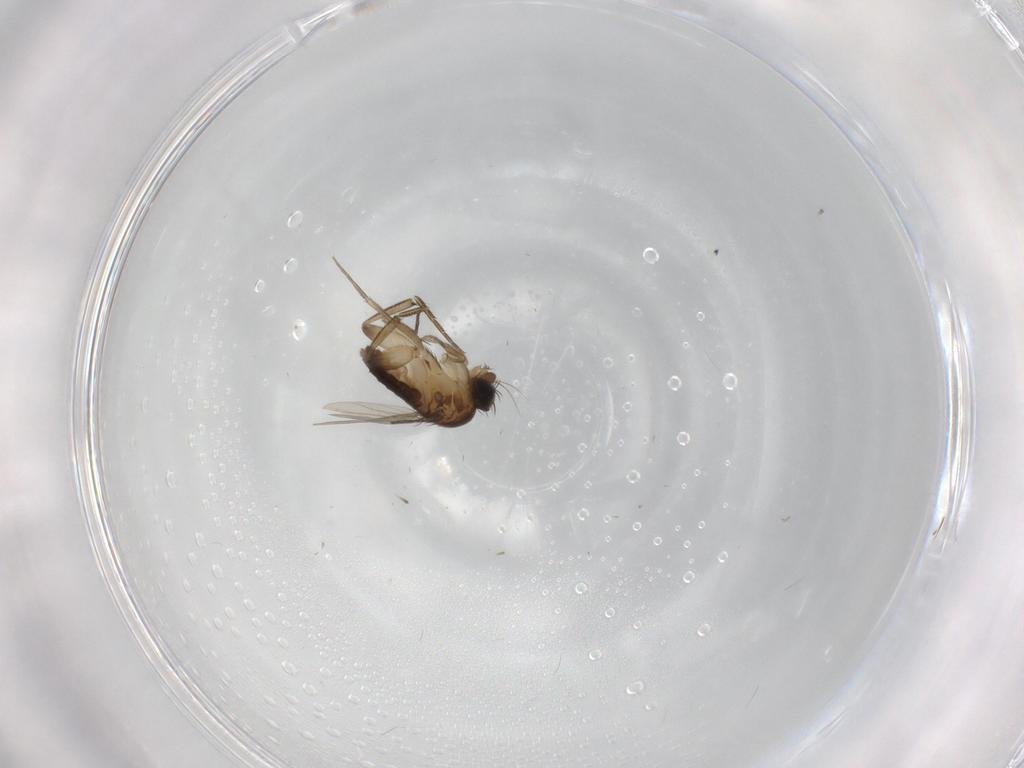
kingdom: Animalia
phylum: Arthropoda
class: Insecta
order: Diptera
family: Phoridae
